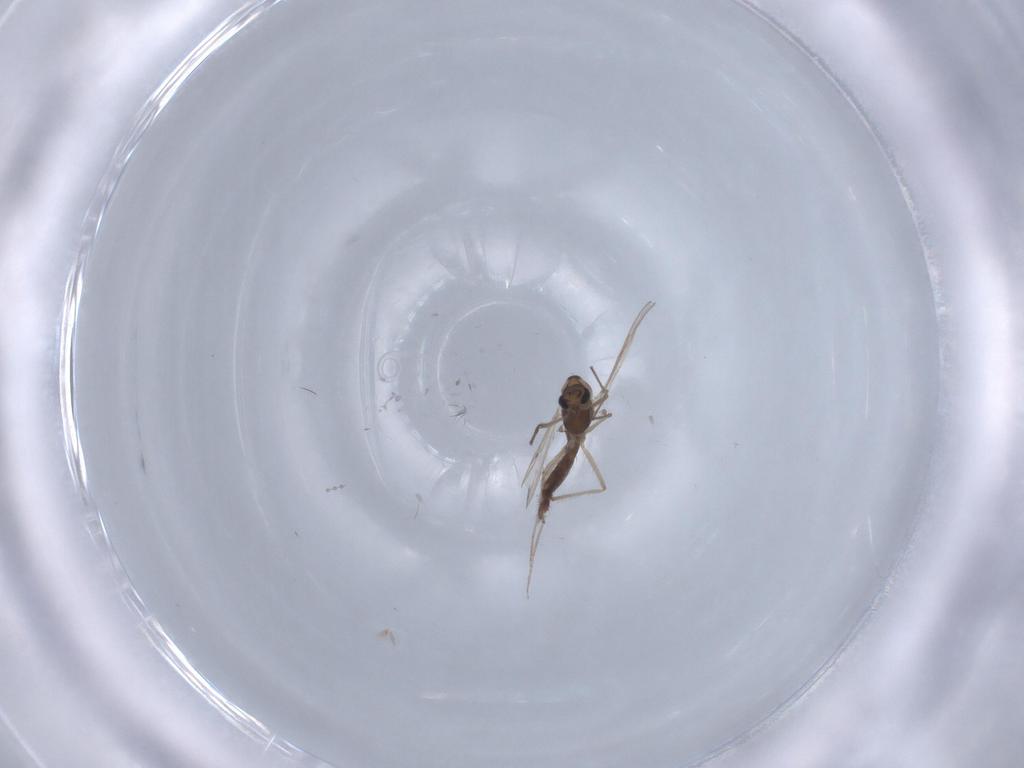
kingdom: Animalia
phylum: Arthropoda
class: Insecta
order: Diptera
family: Chironomidae
